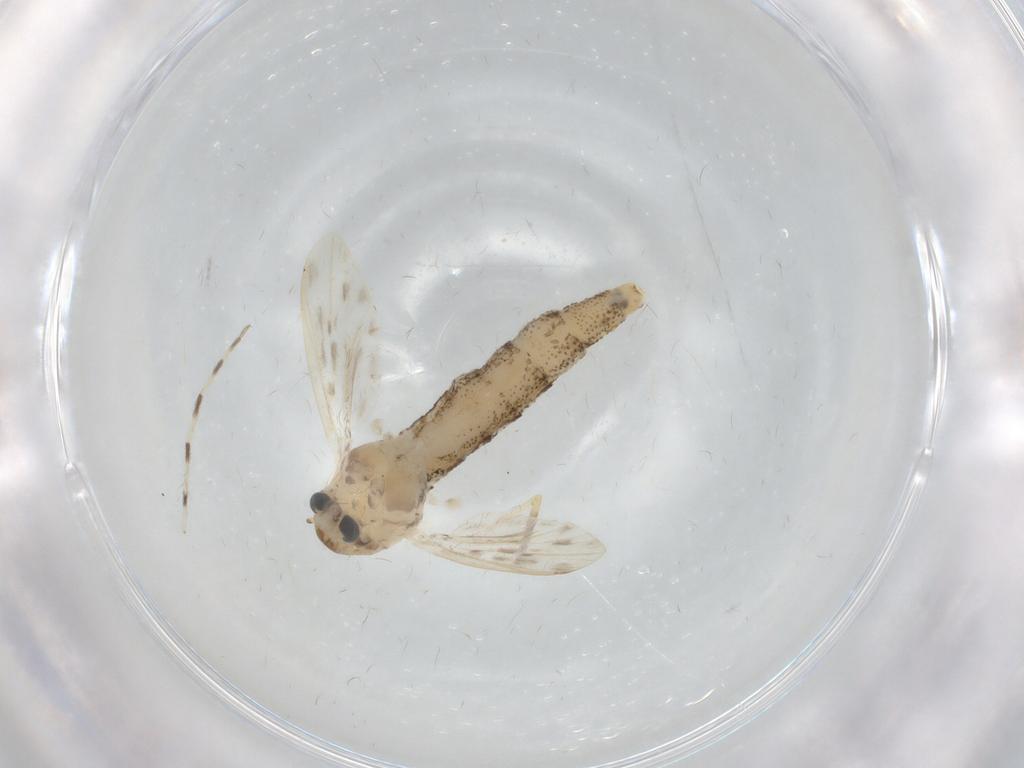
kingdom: Animalia
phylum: Arthropoda
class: Insecta
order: Diptera
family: Chaoboridae
